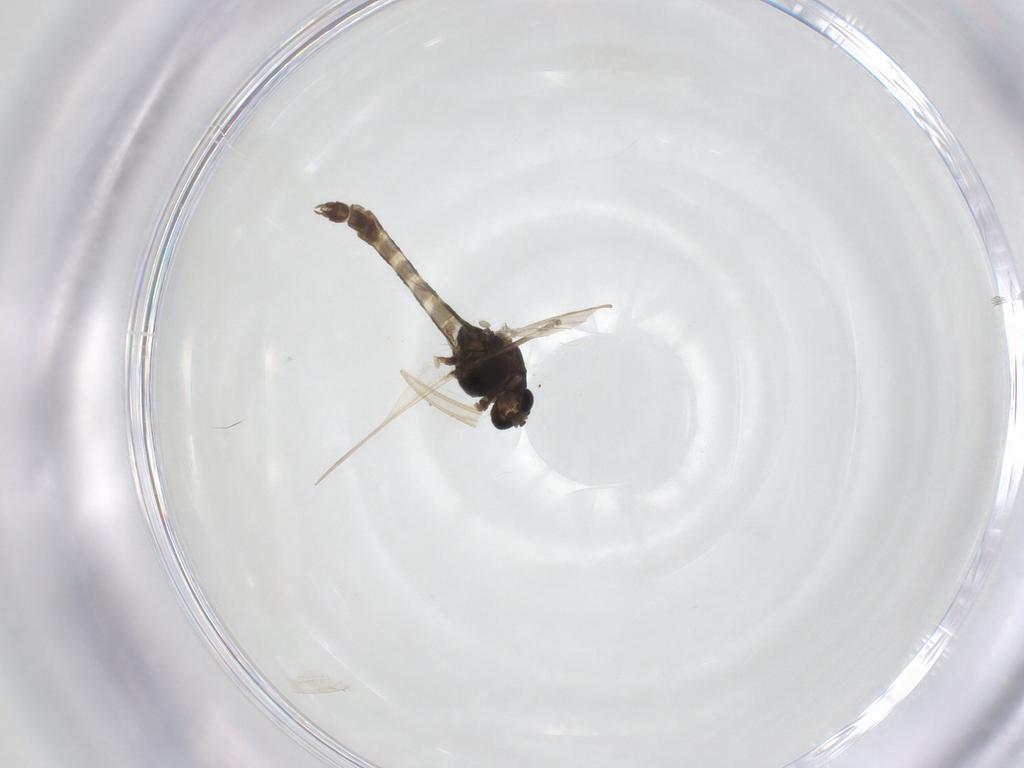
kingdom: Animalia
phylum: Arthropoda
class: Insecta
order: Diptera
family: Chironomidae
